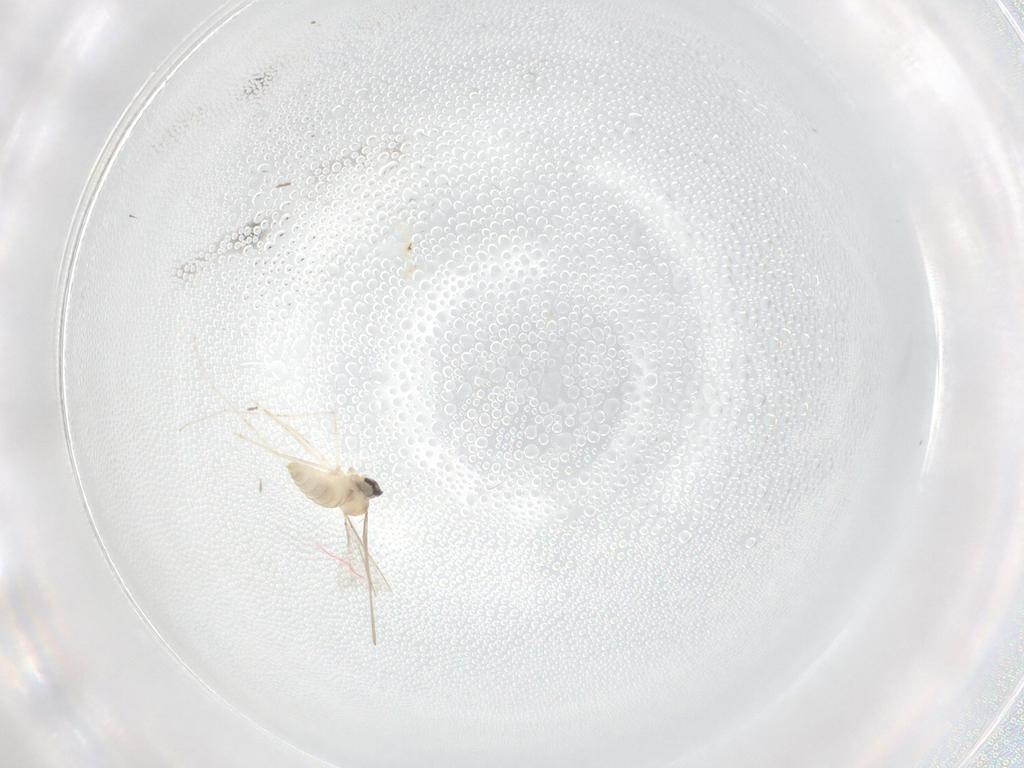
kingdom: Animalia
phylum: Arthropoda
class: Insecta
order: Diptera
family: Cecidomyiidae
